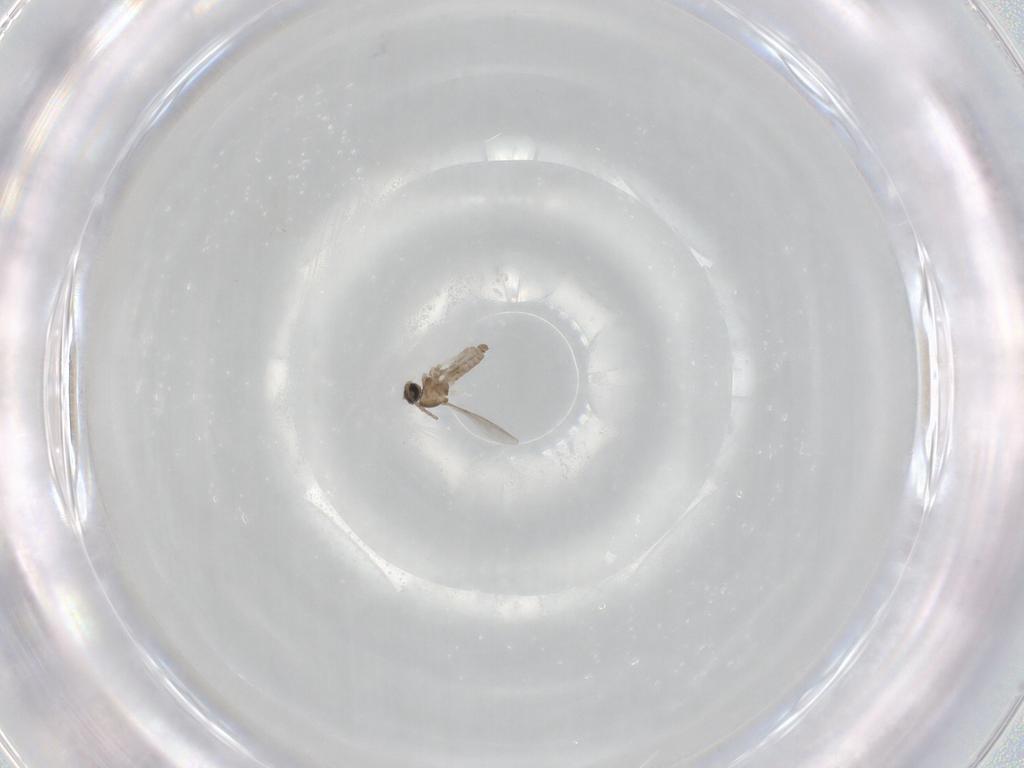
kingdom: Animalia
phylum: Arthropoda
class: Insecta
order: Diptera
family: Cecidomyiidae
